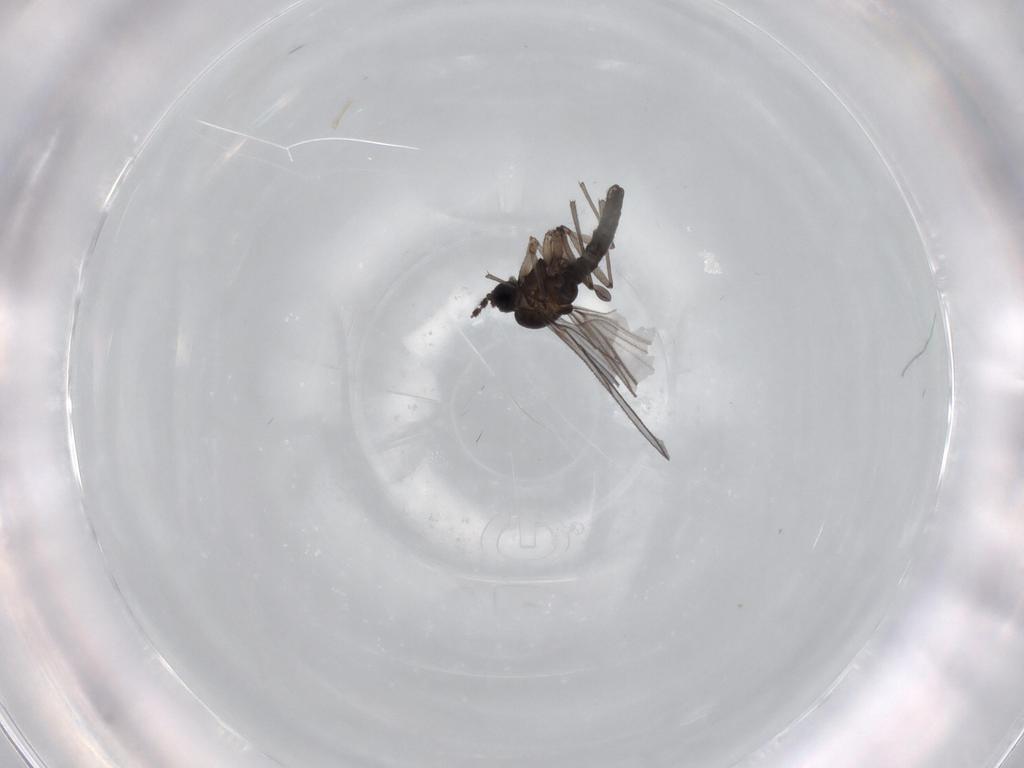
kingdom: Animalia
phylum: Arthropoda
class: Insecta
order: Diptera
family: Sciaridae
